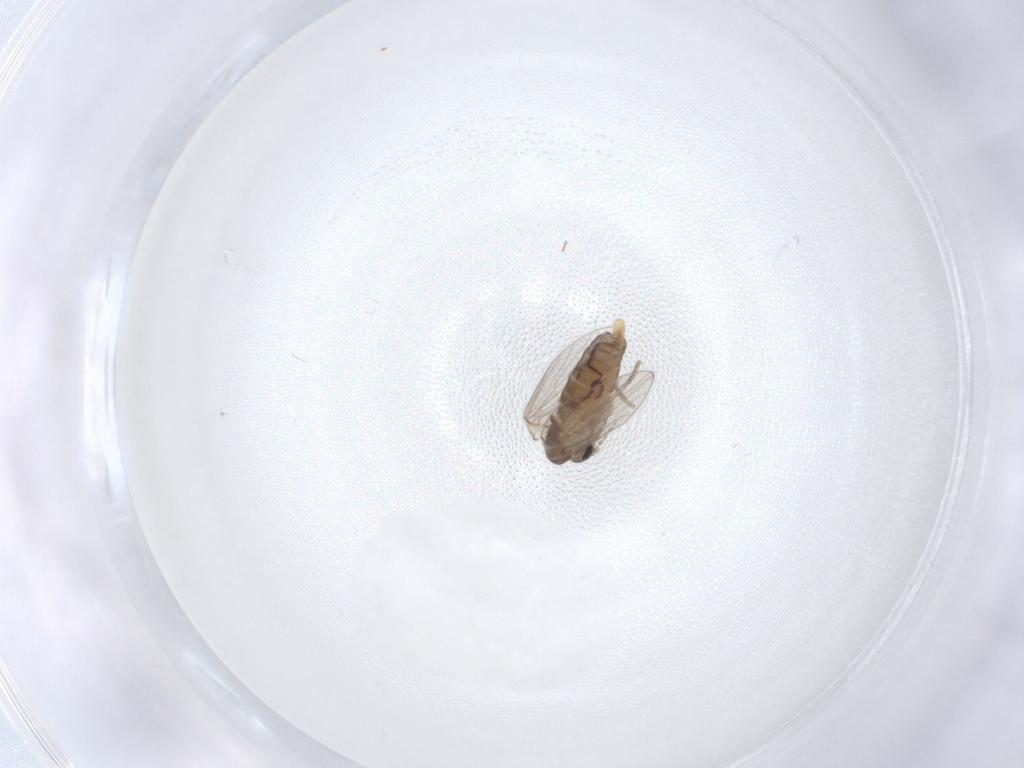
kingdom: Animalia
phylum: Arthropoda
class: Insecta
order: Diptera
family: Psychodidae
